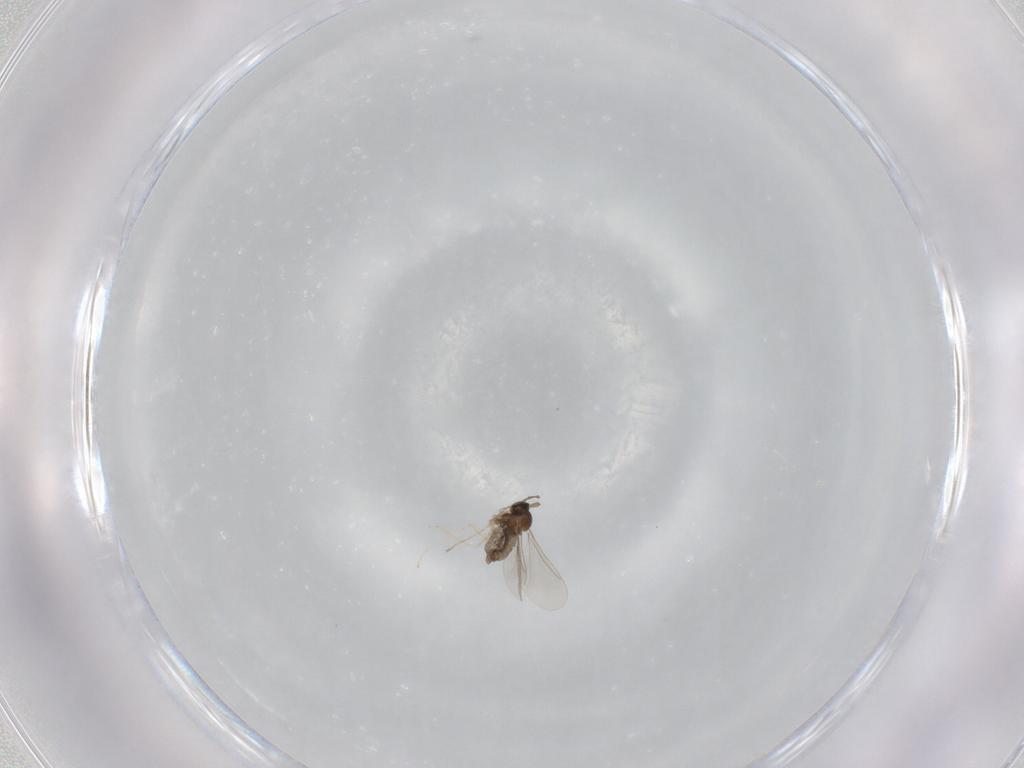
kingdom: Animalia
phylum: Arthropoda
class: Insecta
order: Diptera
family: Cecidomyiidae
